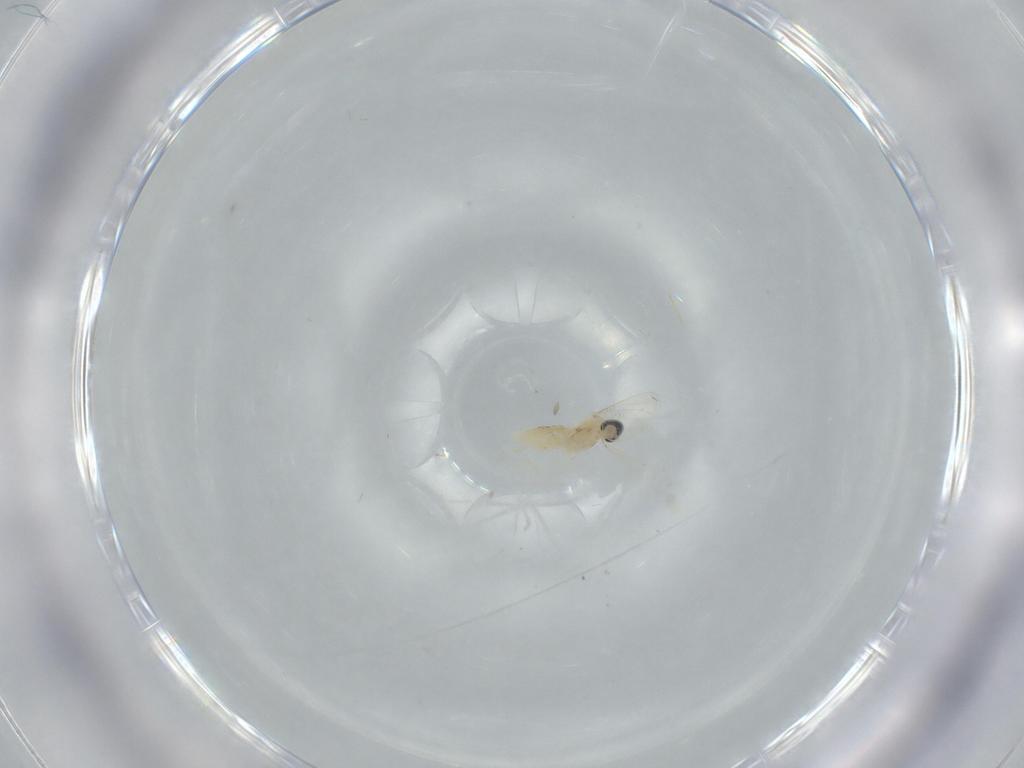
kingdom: Animalia
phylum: Arthropoda
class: Insecta
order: Diptera
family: Cecidomyiidae
